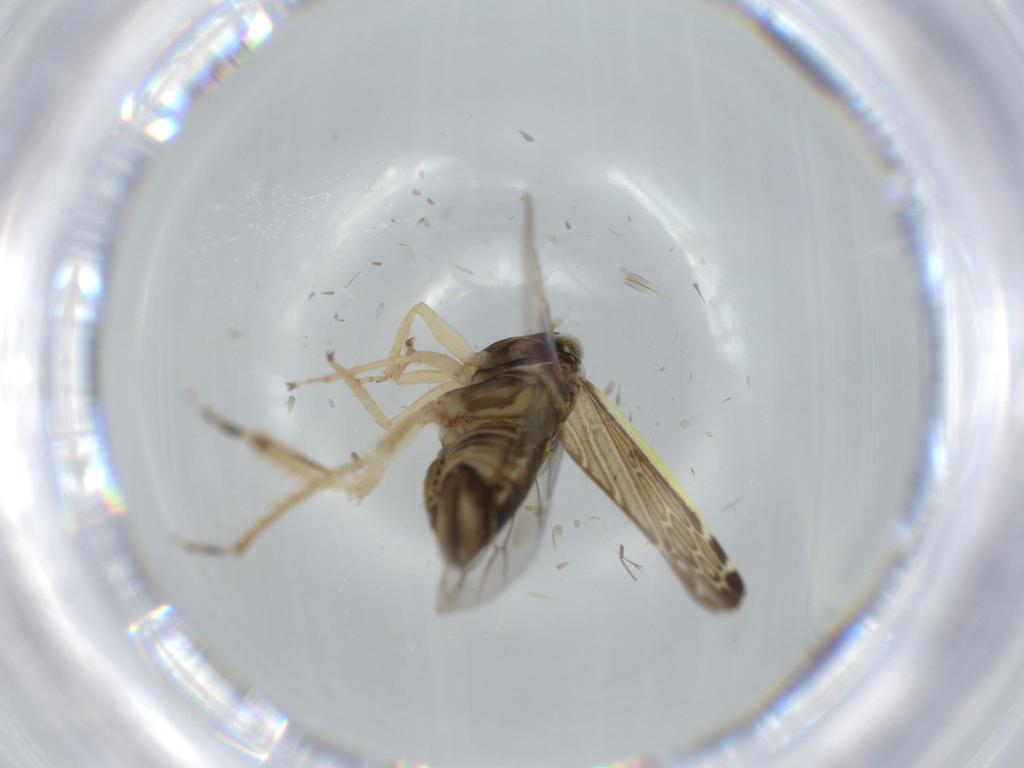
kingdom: Animalia
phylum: Arthropoda
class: Insecta
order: Hemiptera
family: Cicadellidae
